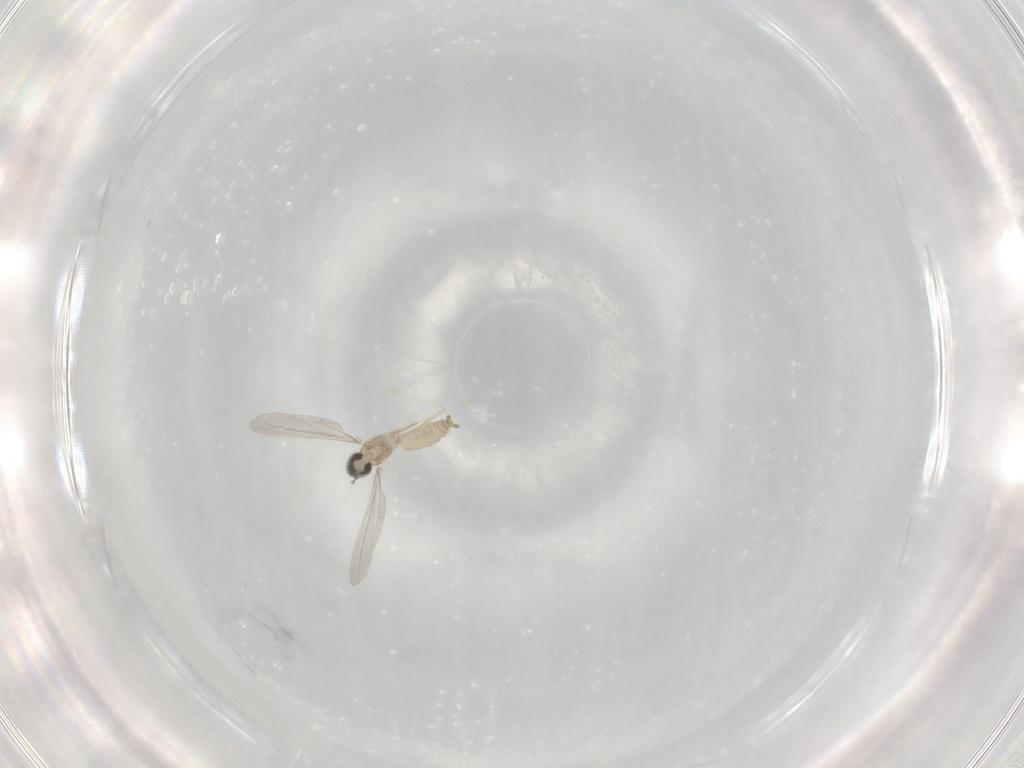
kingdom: Animalia
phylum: Arthropoda
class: Insecta
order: Diptera
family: Cecidomyiidae
